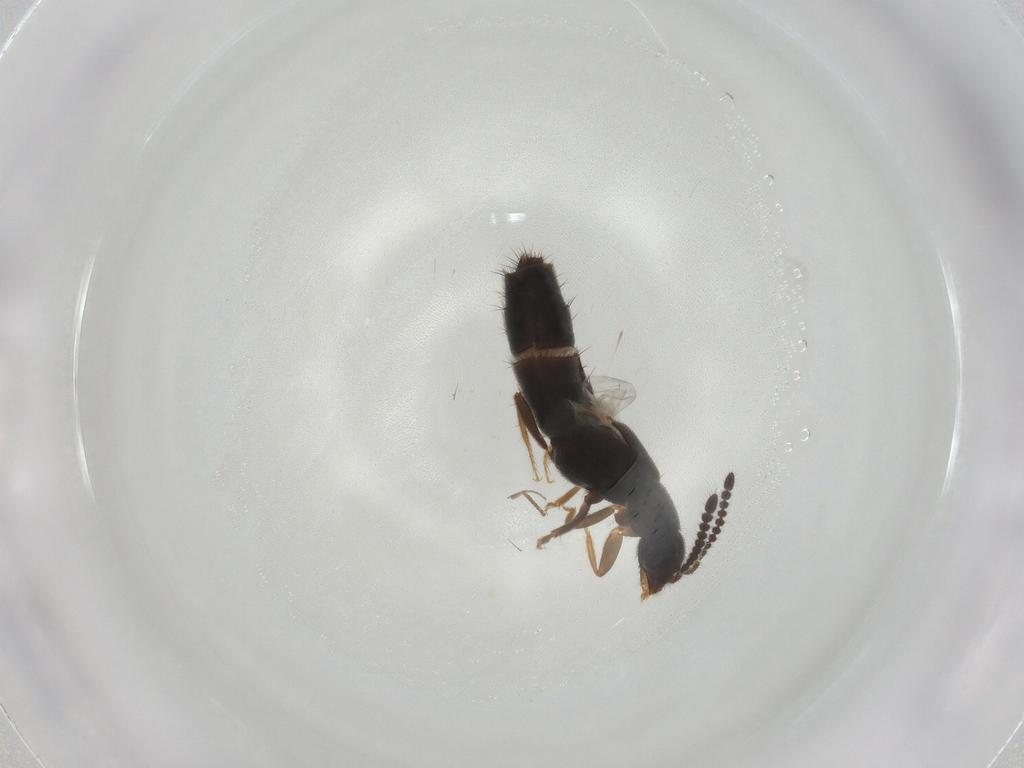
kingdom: Animalia
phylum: Arthropoda
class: Insecta
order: Coleoptera
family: Staphylinidae
